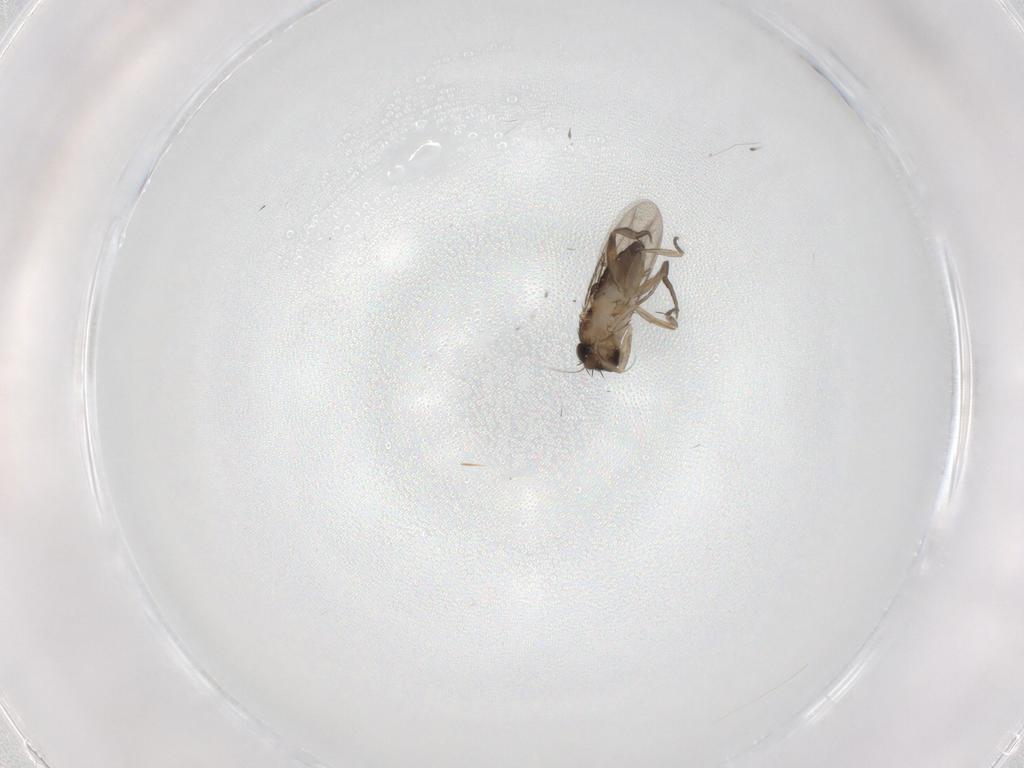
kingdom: Animalia
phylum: Arthropoda
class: Insecta
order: Diptera
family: Phoridae
